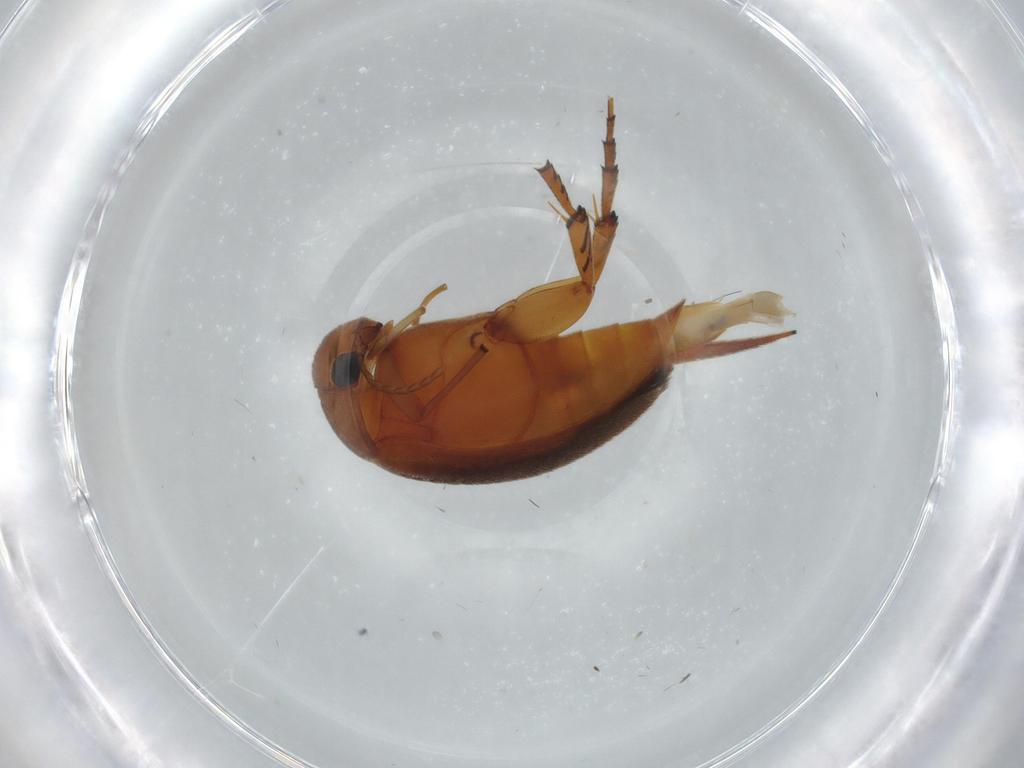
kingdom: Animalia
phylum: Arthropoda
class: Insecta
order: Coleoptera
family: Mordellidae
